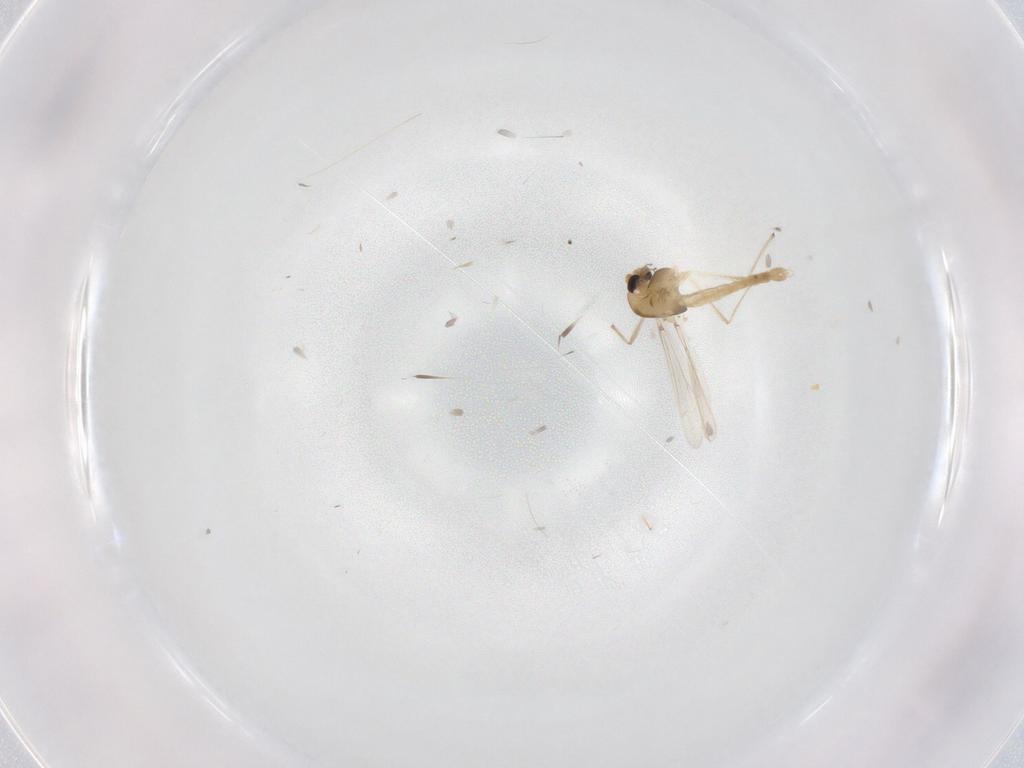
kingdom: Animalia
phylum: Arthropoda
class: Insecta
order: Diptera
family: Chironomidae
